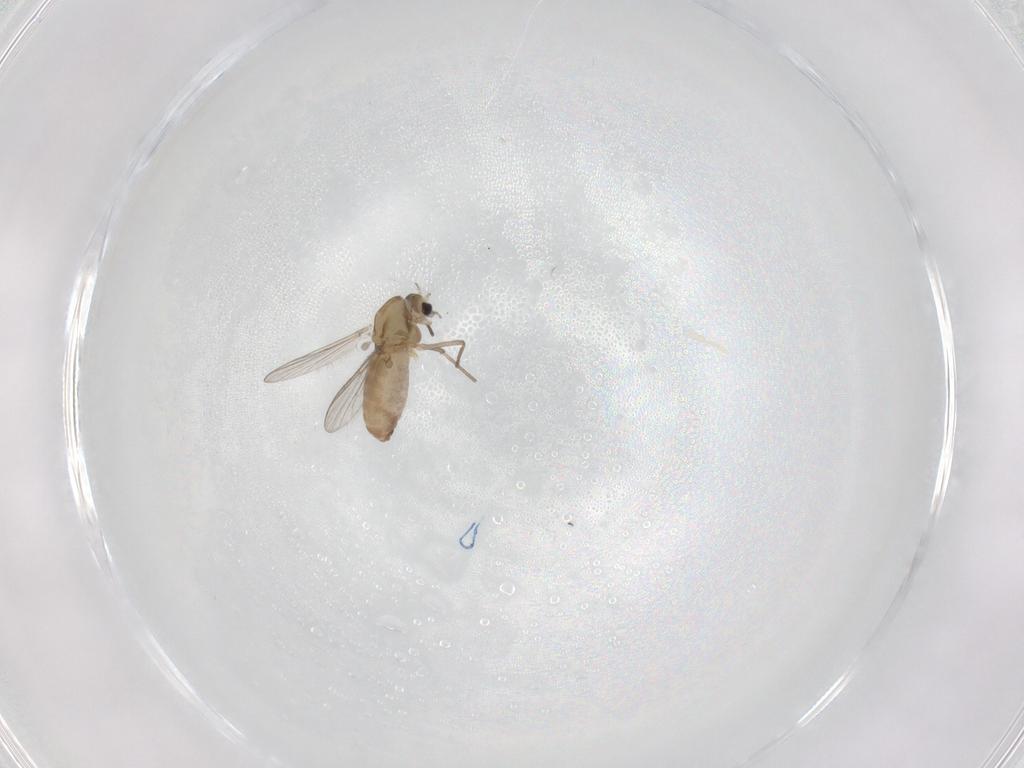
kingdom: Animalia
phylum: Arthropoda
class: Insecta
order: Diptera
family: Chironomidae
